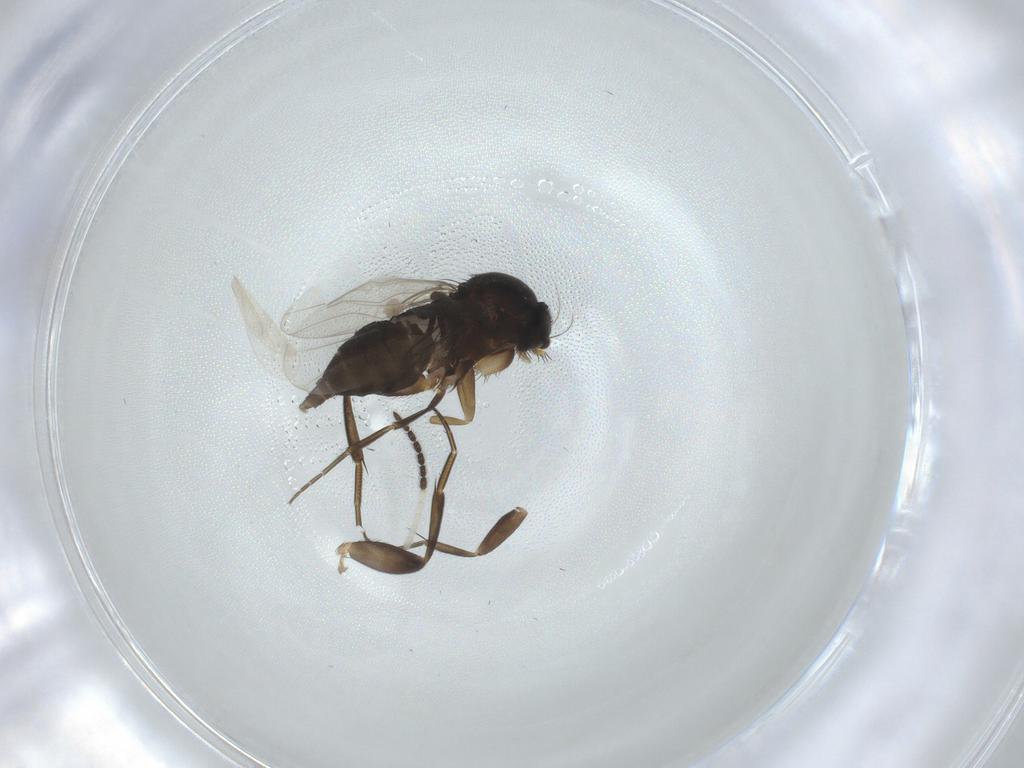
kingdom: Animalia
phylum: Arthropoda
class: Insecta
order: Diptera
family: Phoridae
